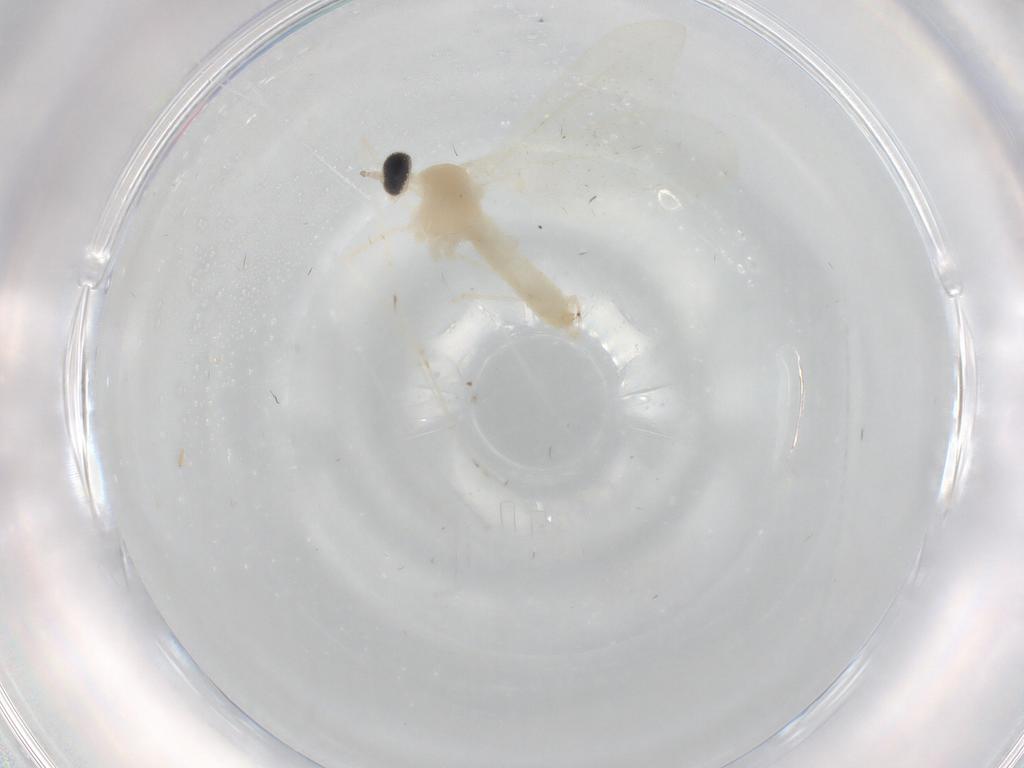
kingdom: Animalia
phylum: Arthropoda
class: Insecta
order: Diptera
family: Cecidomyiidae
